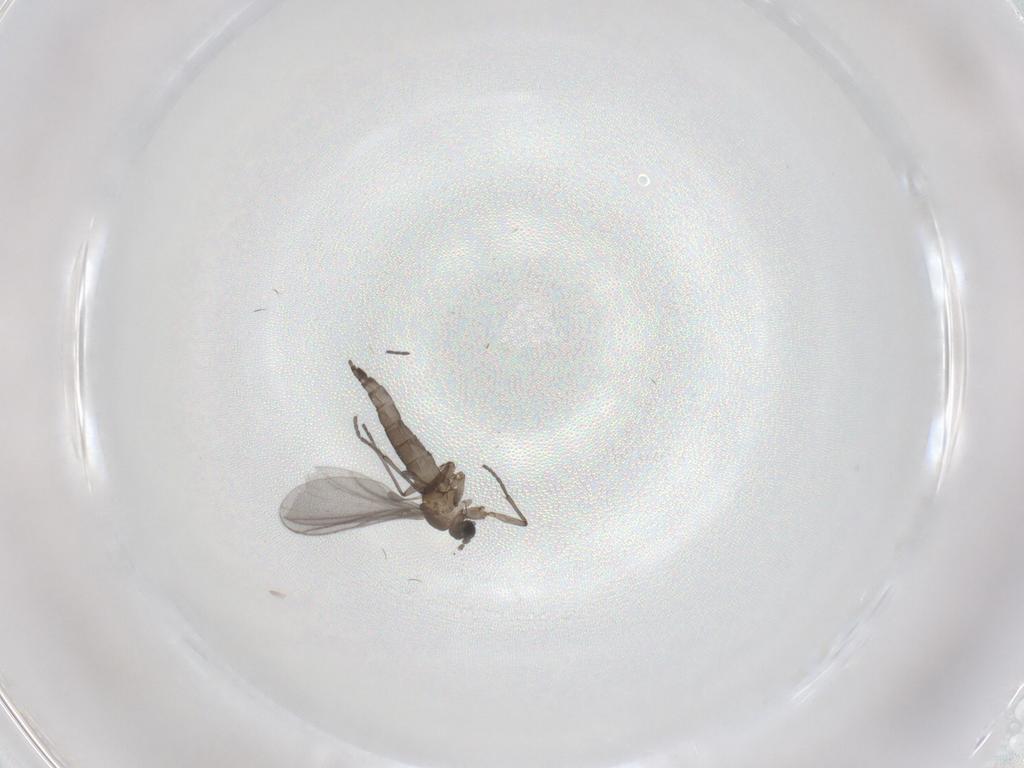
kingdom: Animalia
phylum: Arthropoda
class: Insecta
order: Diptera
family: Sciaridae
